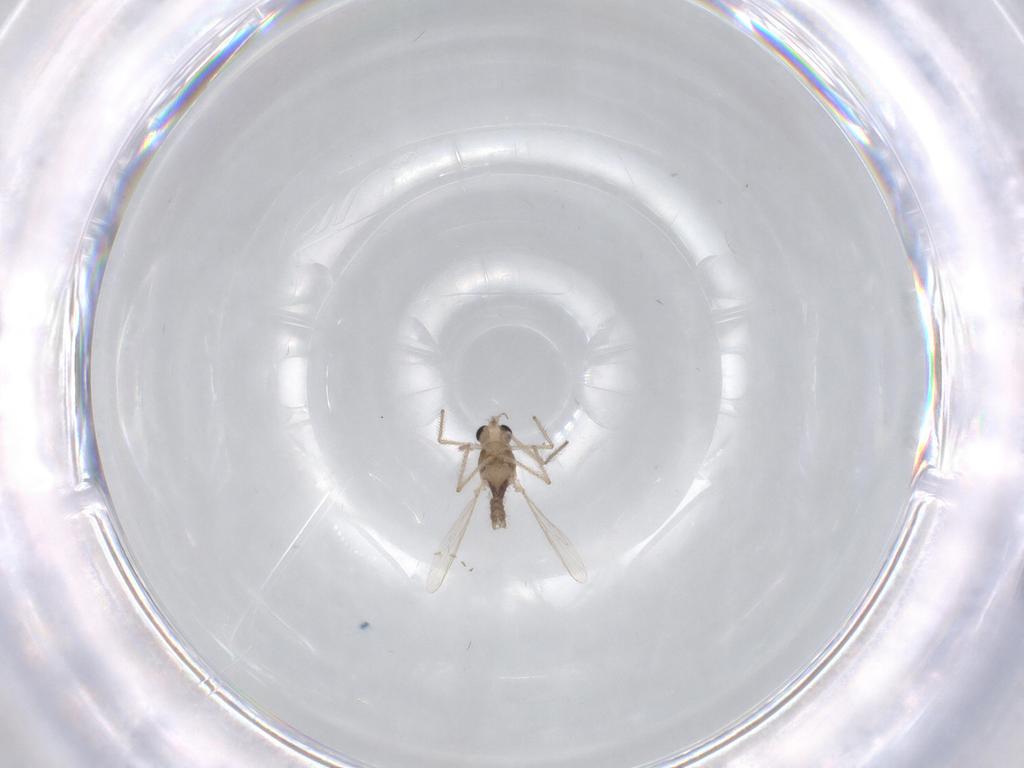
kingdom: Animalia
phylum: Arthropoda
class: Insecta
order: Diptera
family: Chironomidae
